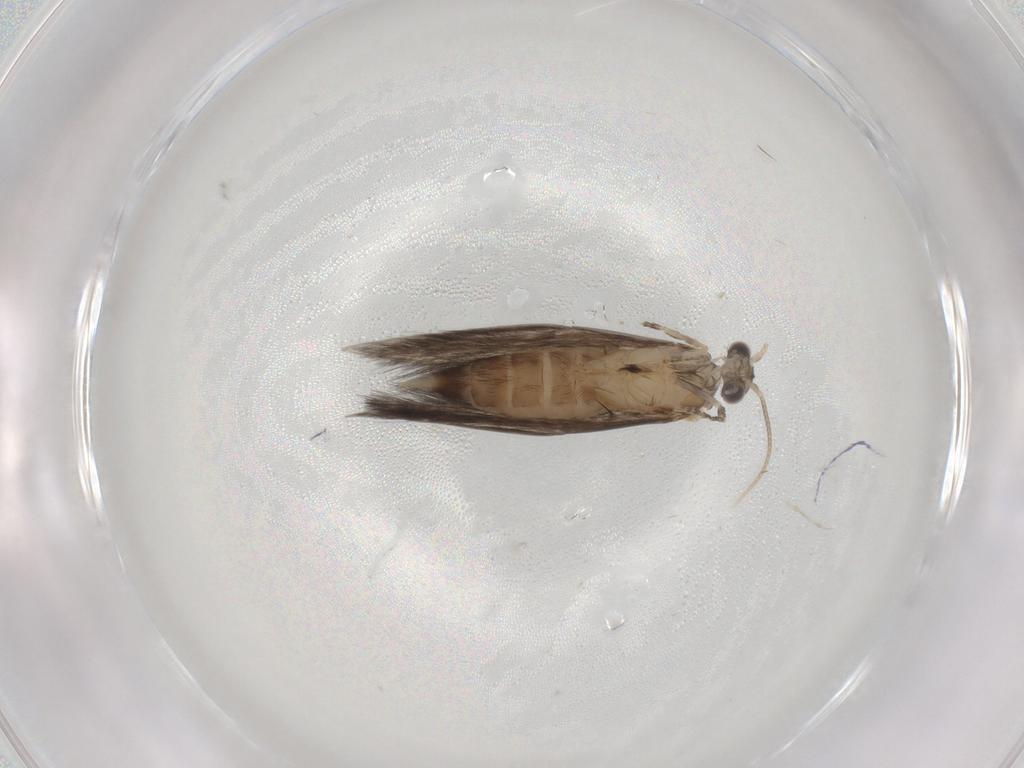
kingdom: Animalia
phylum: Arthropoda
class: Insecta
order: Trichoptera
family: Hydroptilidae
